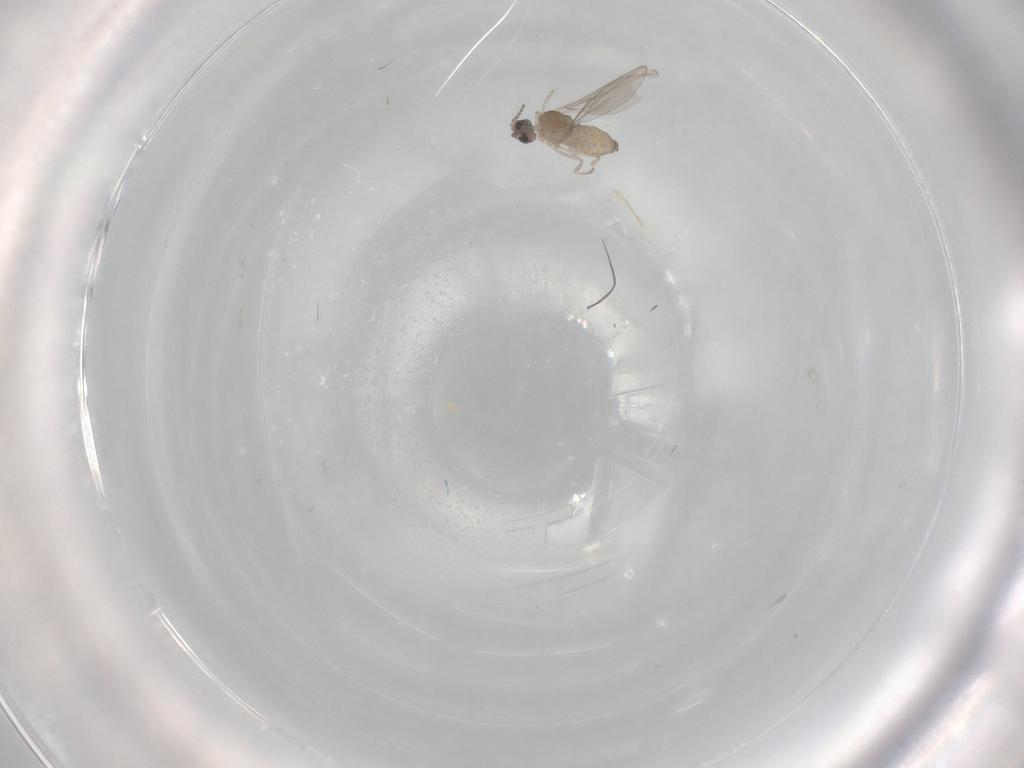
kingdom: Animalia
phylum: Arthropoda
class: Insecta
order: Diptera
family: Cecidomyiidae
